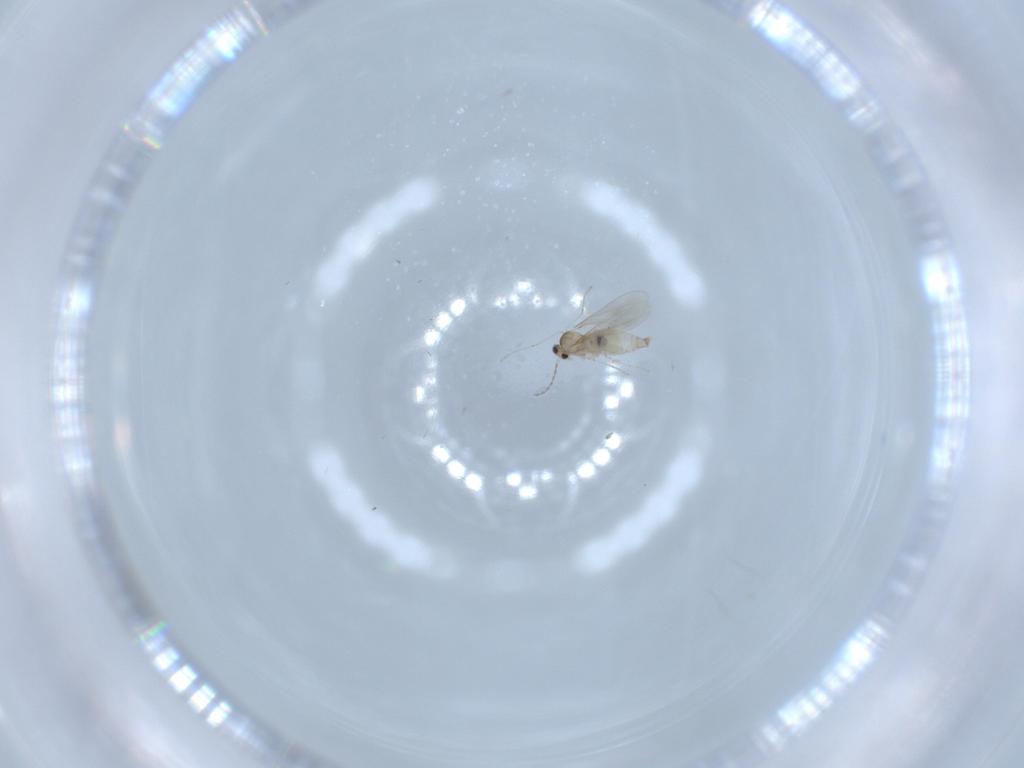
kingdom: Animalia
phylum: Arthropoda
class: Insecta
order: Diptera
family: Cecidomyiidae
